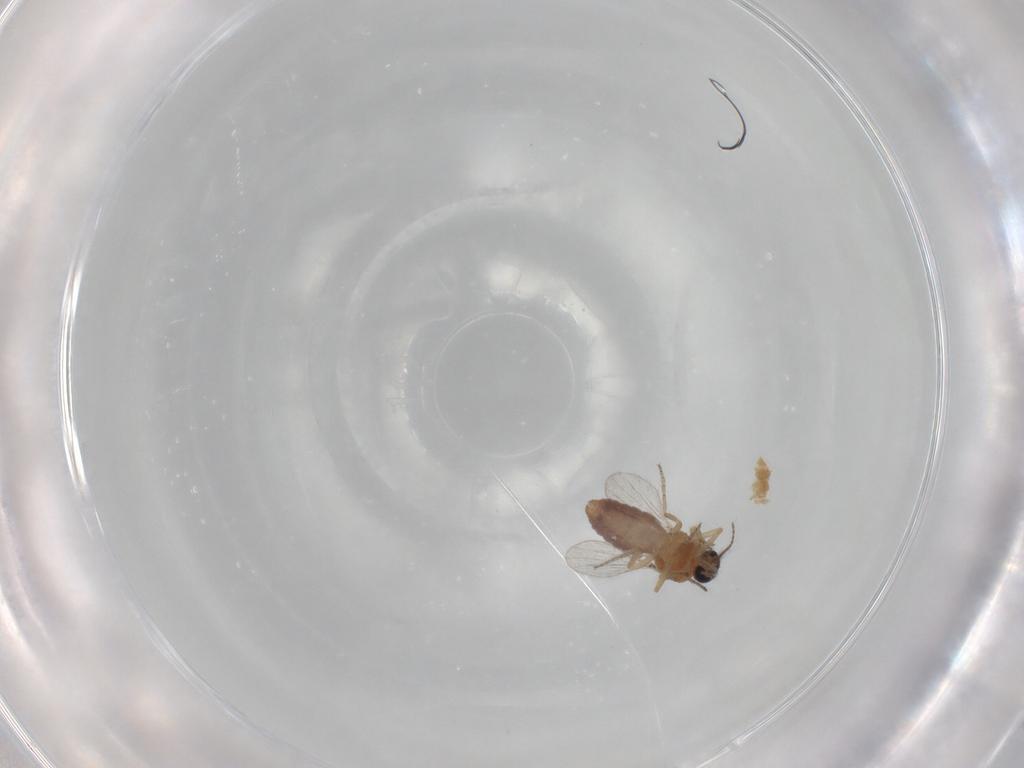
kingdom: Animalia
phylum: Arthropoda
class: Insecta
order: Diptera
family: Ceratopogonidae
